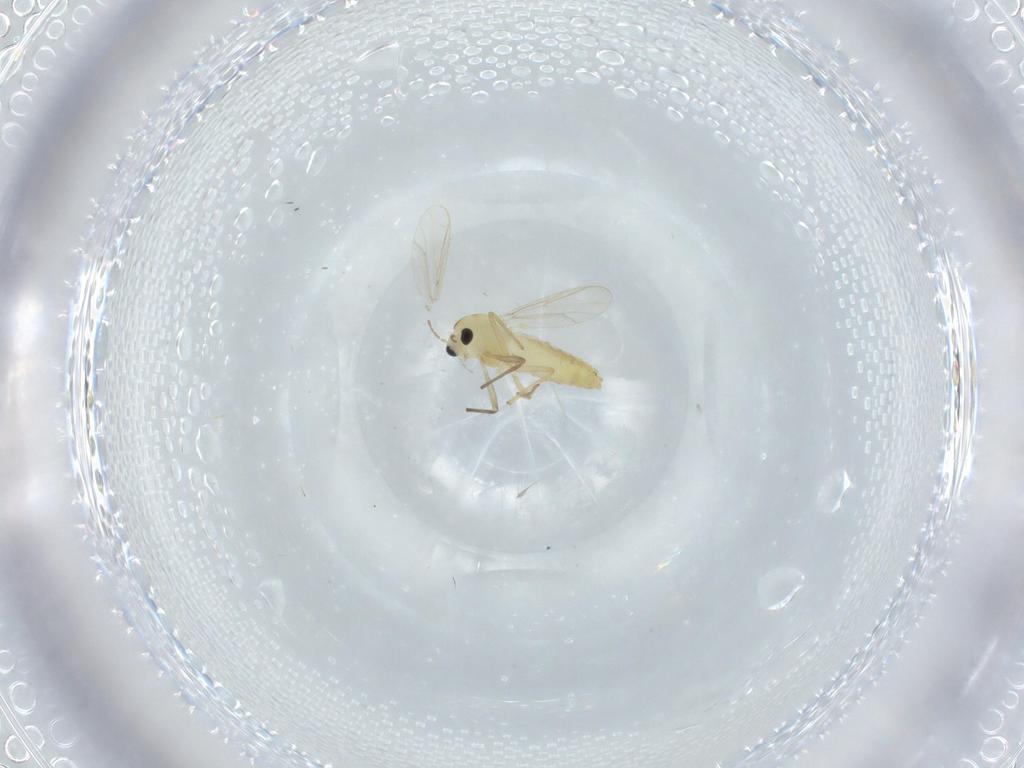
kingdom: Animalia
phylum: Arthropoda
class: Insecta
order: Diptera
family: Chironomidae
